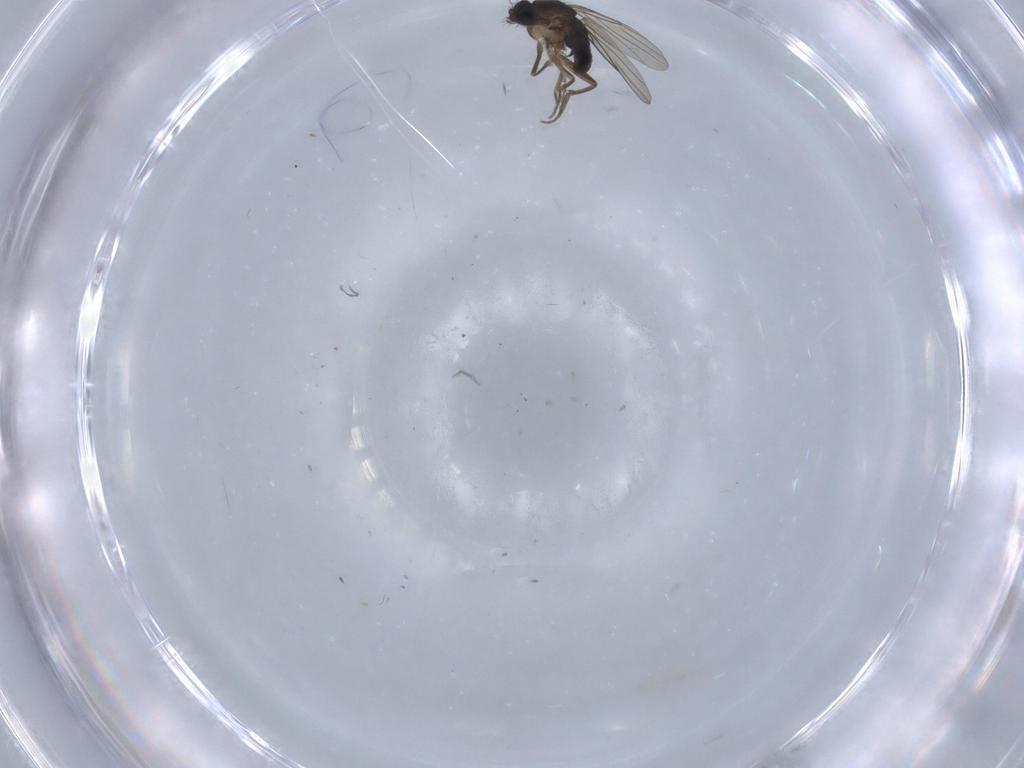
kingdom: Animalia
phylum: Arthropoda
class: Insecta
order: Diptera
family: Phoridae
